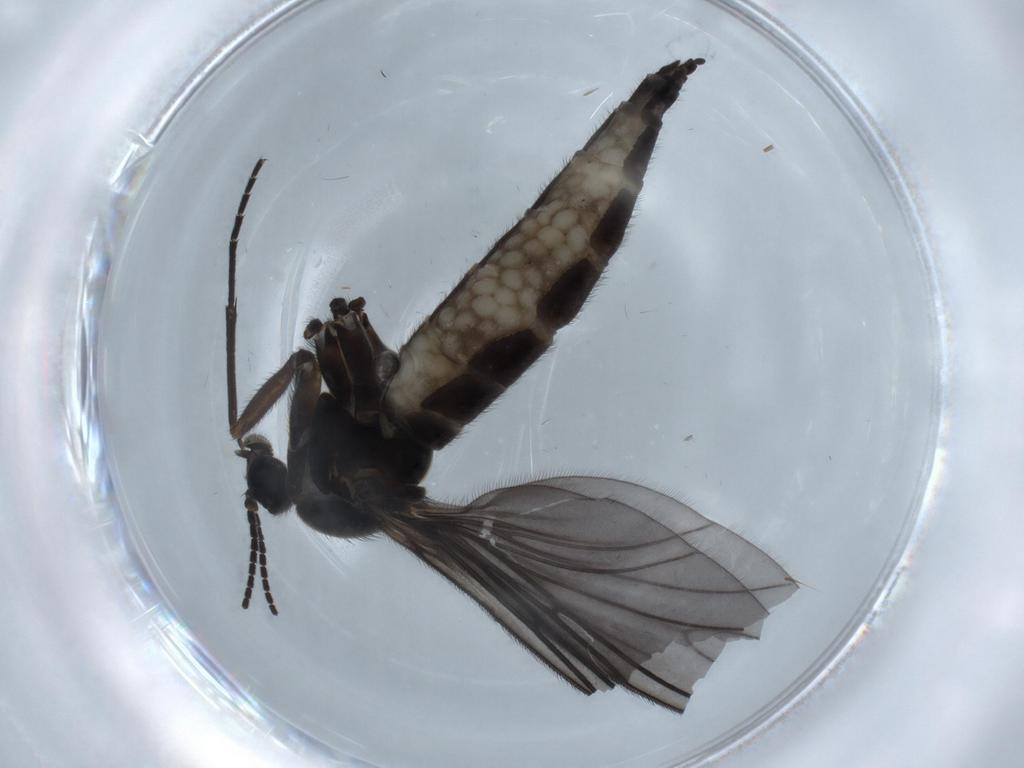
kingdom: Animalia
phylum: Arthropoda
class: Insecta
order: Diptera
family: Sciaridae
